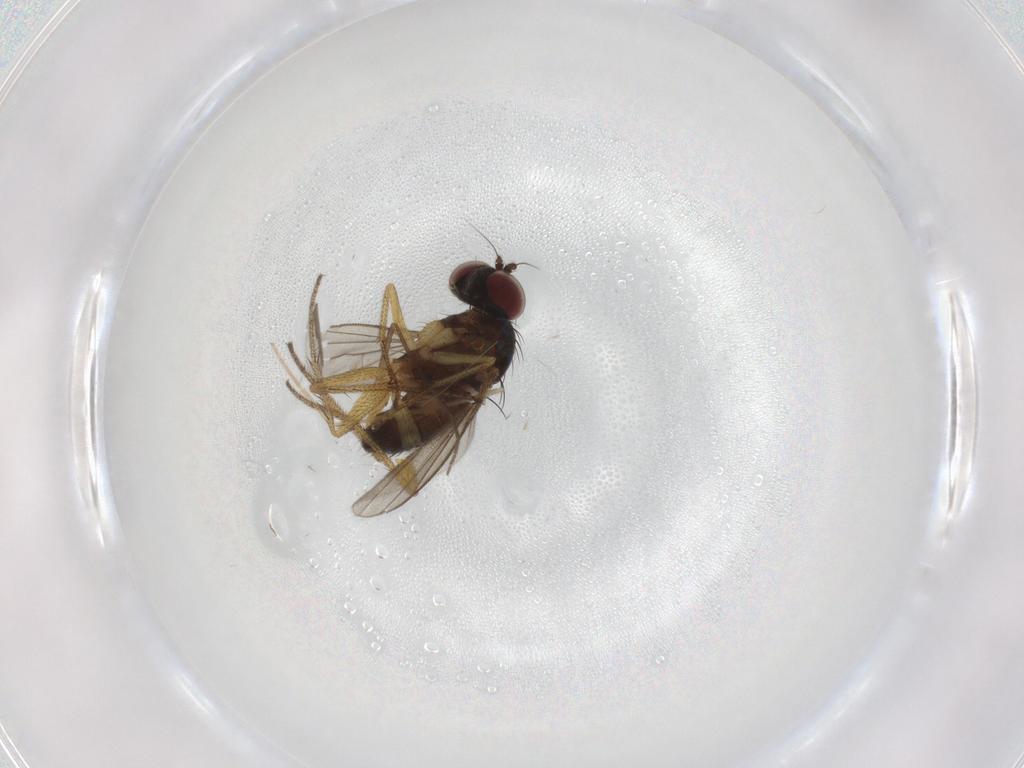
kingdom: Animalia
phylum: Arthropoda
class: Insecta
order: Diptera
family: Chironomidae
